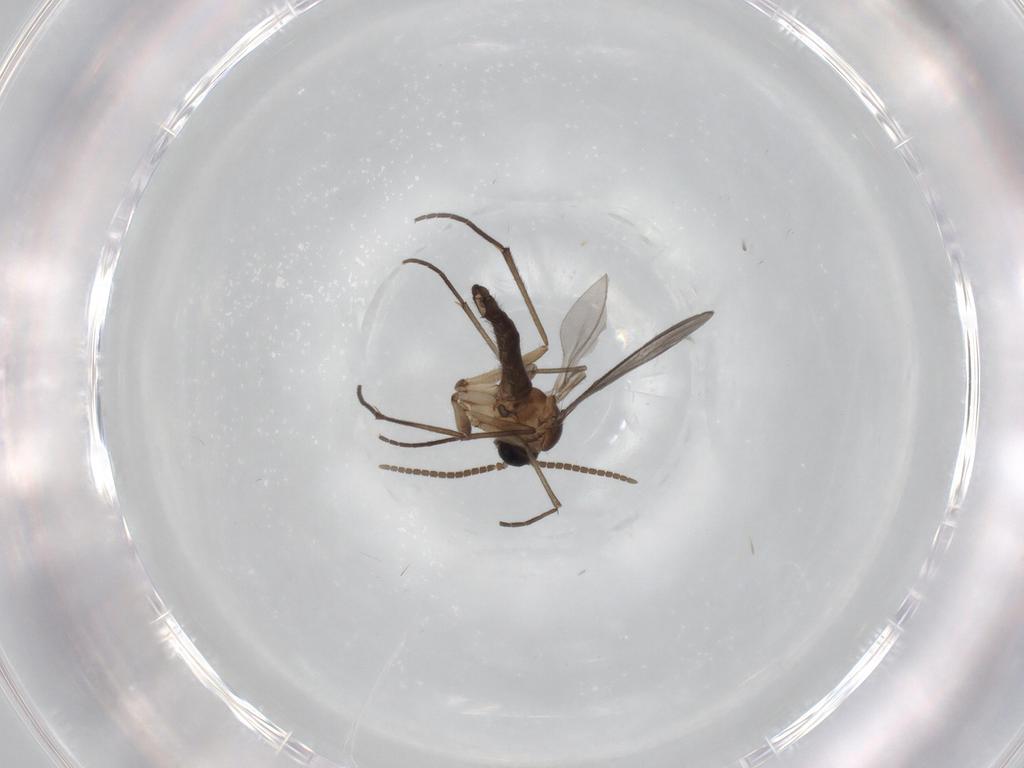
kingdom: Animalia
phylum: Arthropoda
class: Insecta
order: Diptera
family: Cecidomyiidae
